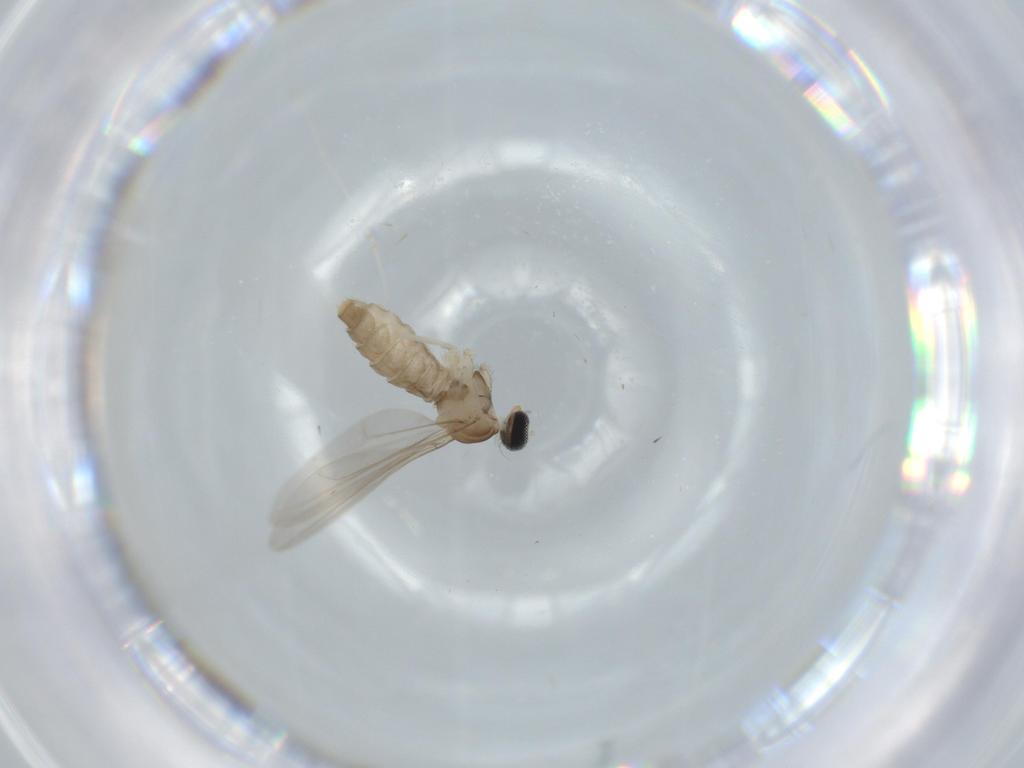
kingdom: Animalia
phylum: Arthropoda
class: Insecta
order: Diptera
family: Cecidomyiidae
